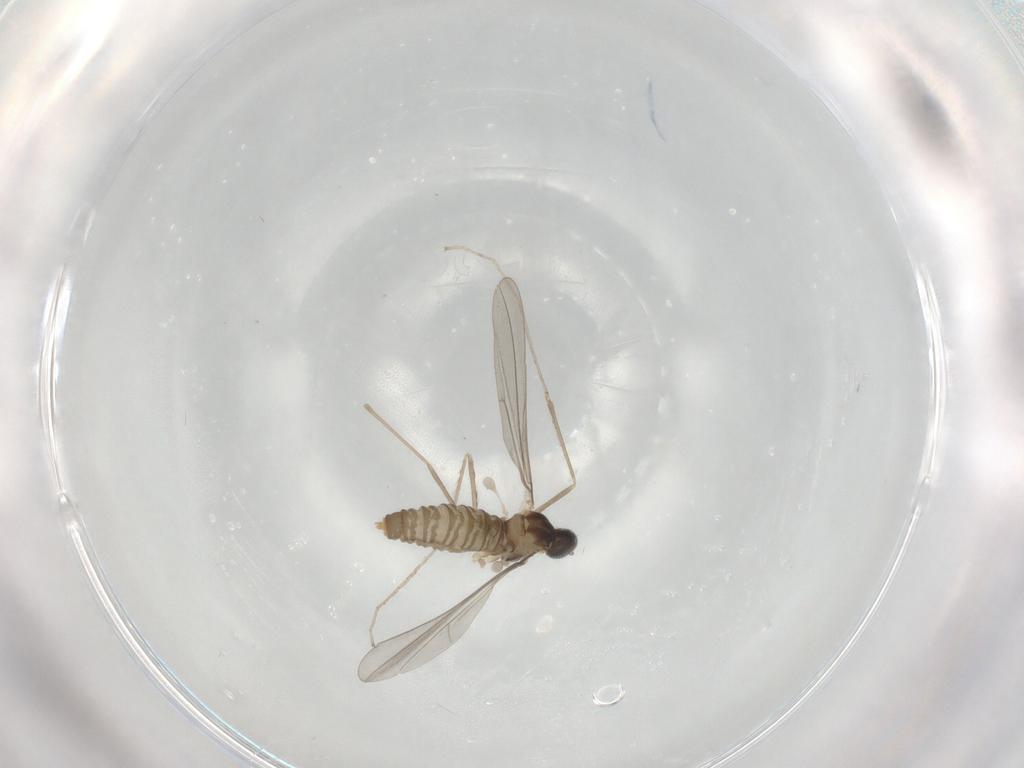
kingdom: Animalia
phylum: Arthropoda
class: Insecta
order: Diptera
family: Cecidomyiidae
